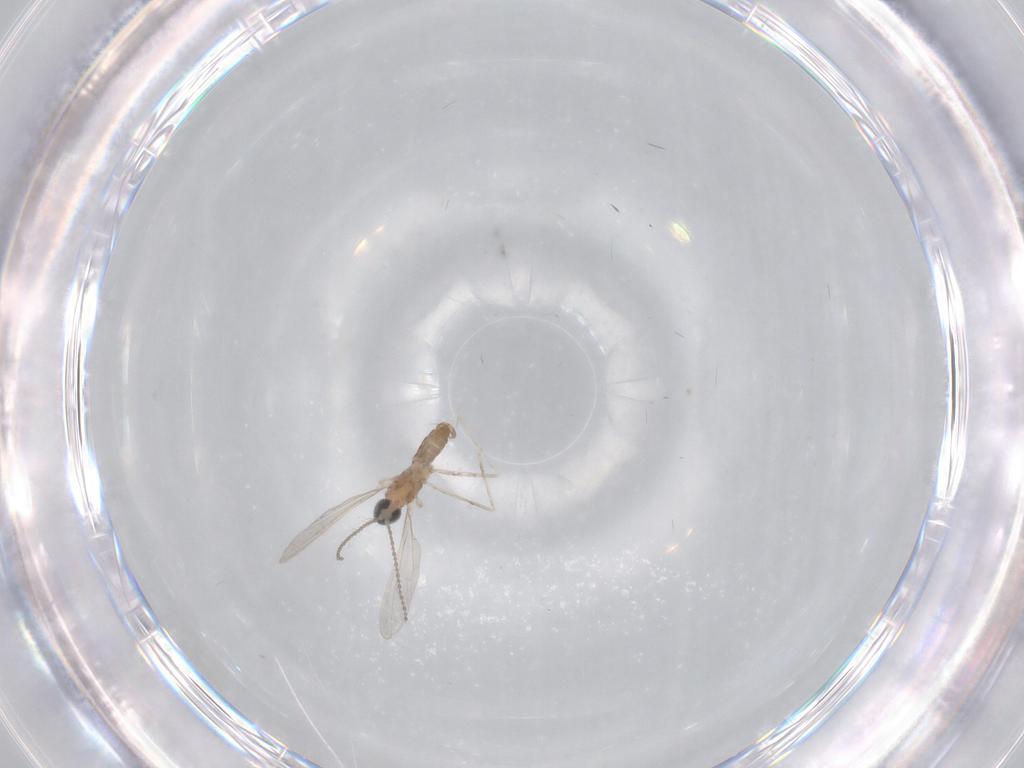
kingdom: Animalia
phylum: Arthropoda
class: Insecta
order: Diptera
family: Cecidomyiidae
